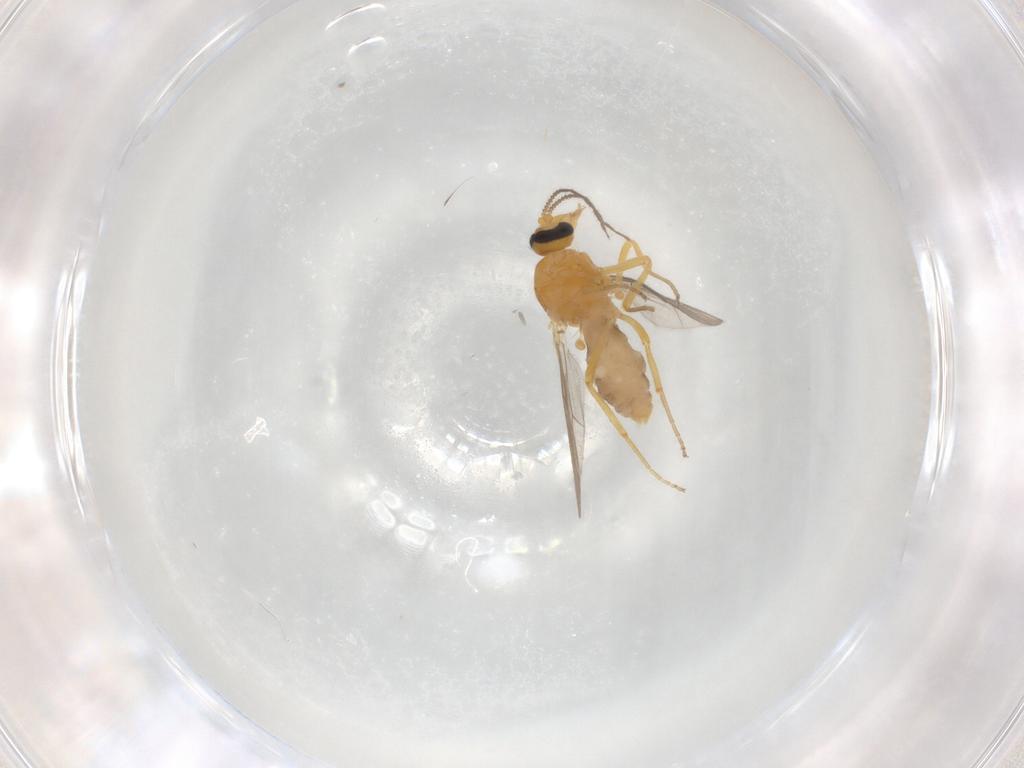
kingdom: Animalia
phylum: Arthropoda
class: Insecta
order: Diptera
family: Ceratopogonidae
